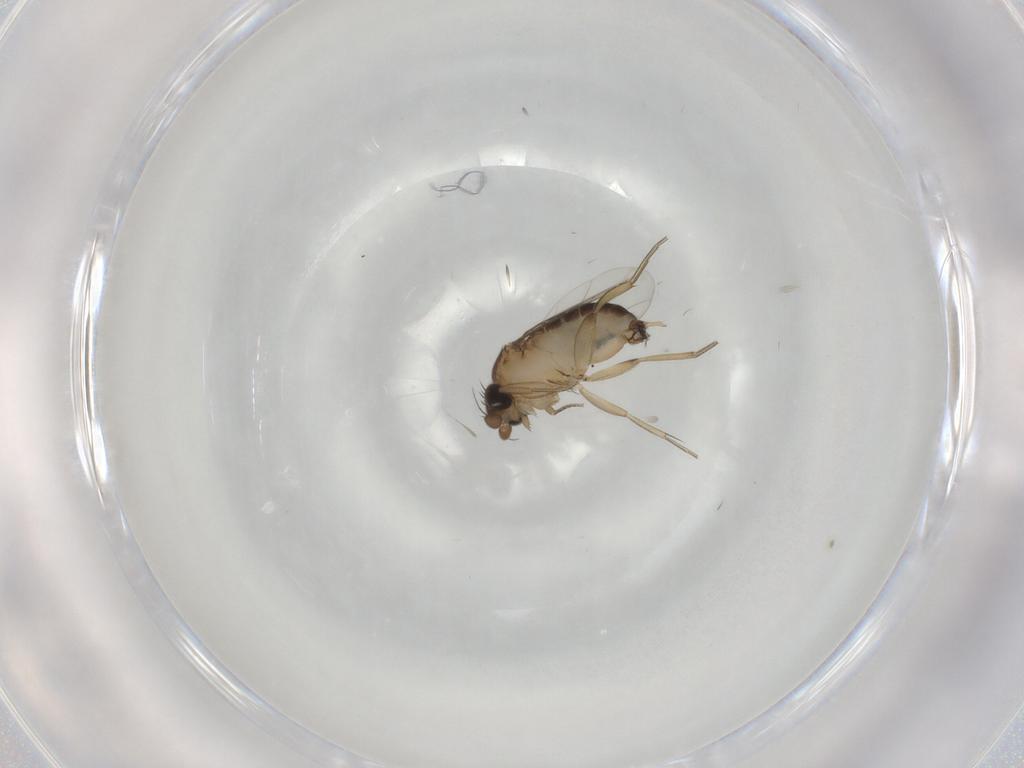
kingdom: Animalia
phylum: Arthropoda
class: Insecta
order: Diptera
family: Phoridae
